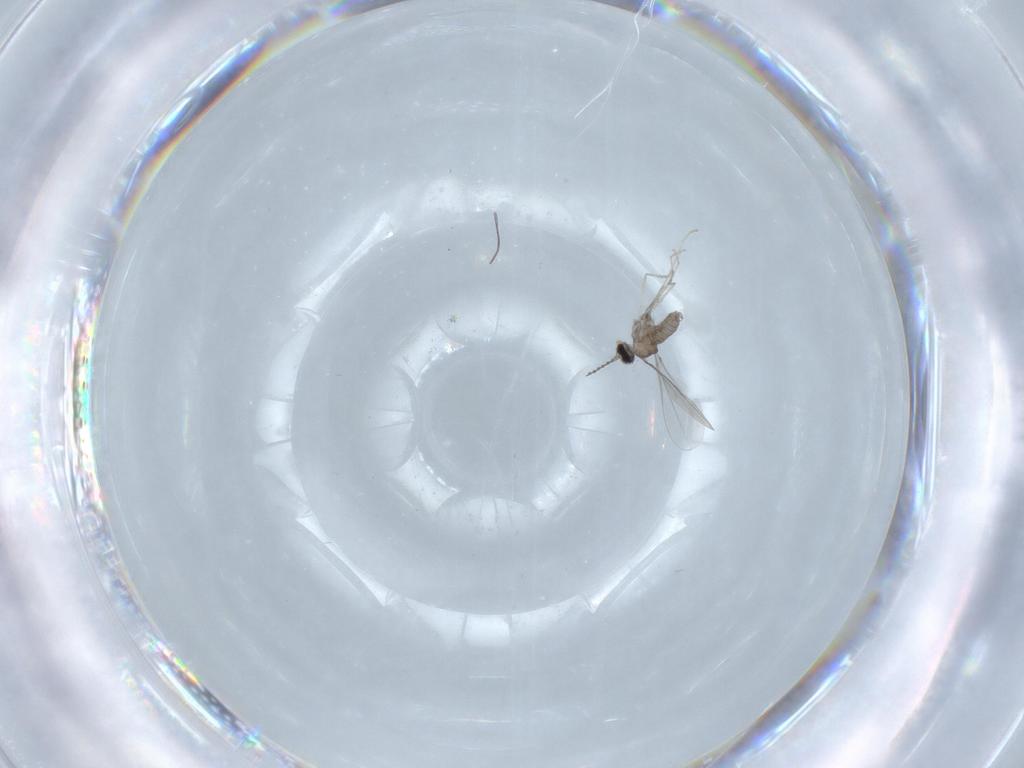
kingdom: Animalia
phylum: Arthropoda
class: Insecta
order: Diptera
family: Cecidomyiidae
